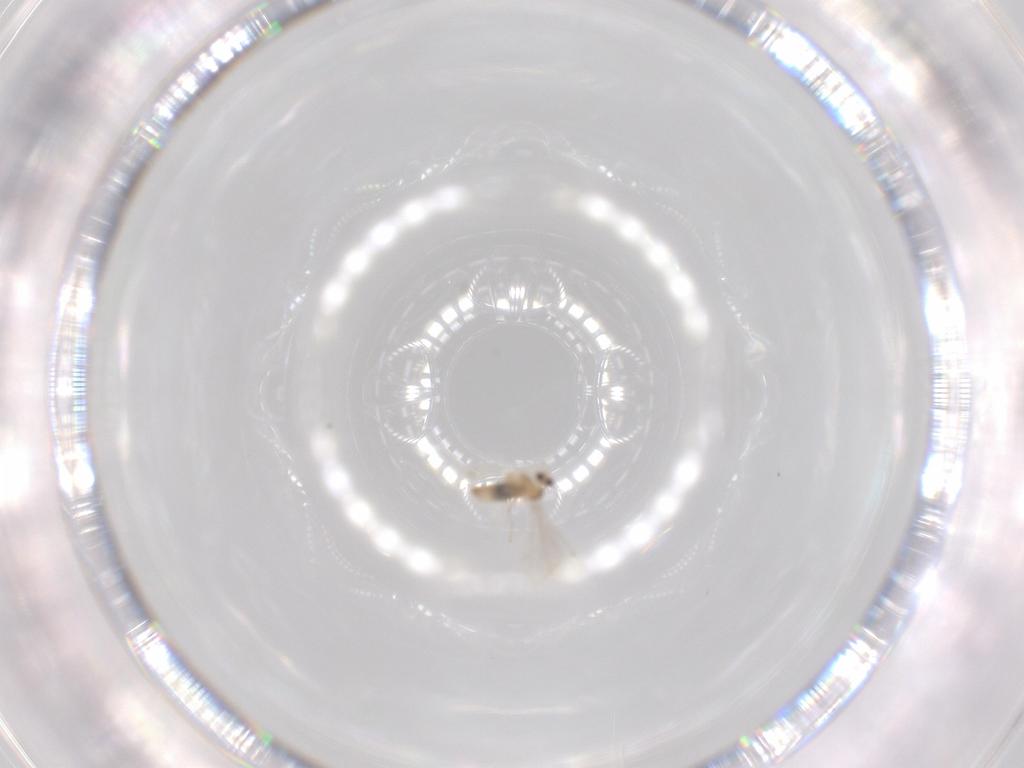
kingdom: Animalia
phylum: Arthropoda
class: Insecta
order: Diptera
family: Cecidomyiidae
